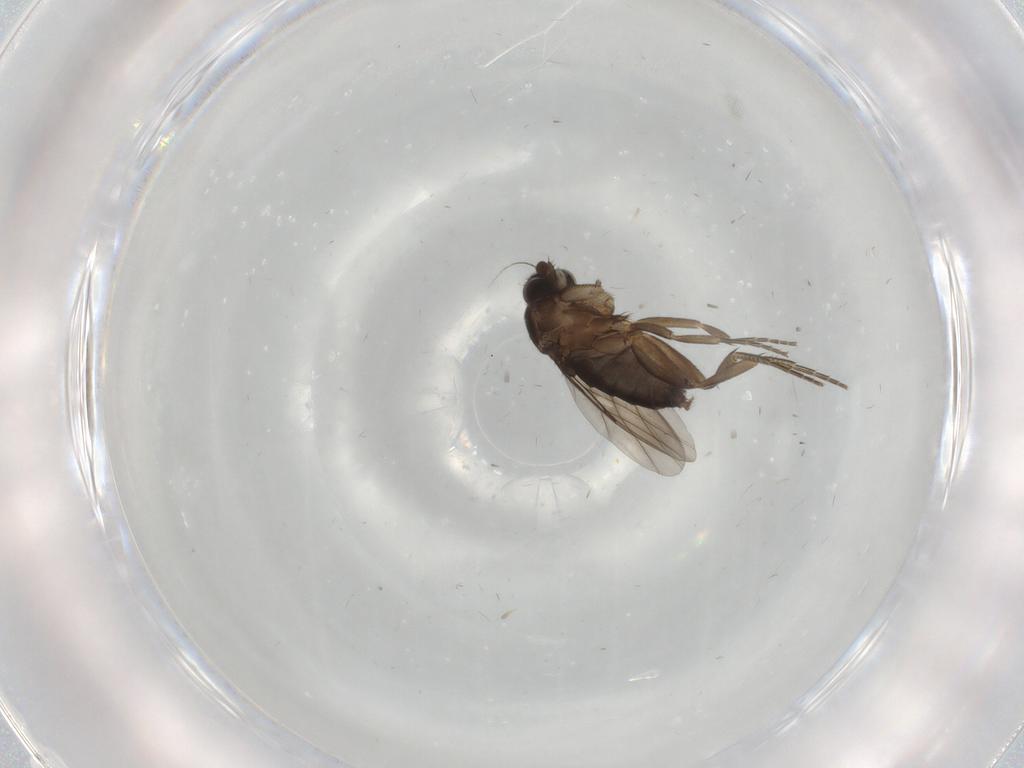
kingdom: Animalia
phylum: Arthropoda
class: Insecta
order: Diptera
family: Phoridae
